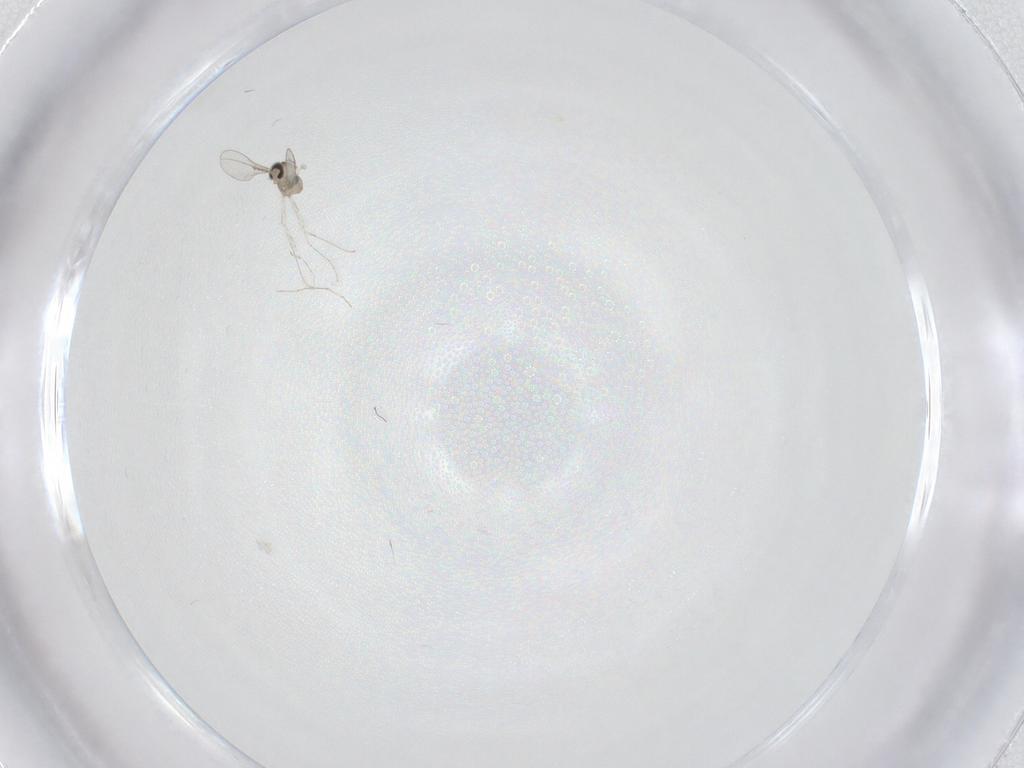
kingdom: Animalia
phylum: Arthropoda
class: Insecta
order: Diptera
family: Cecidomyiidae
